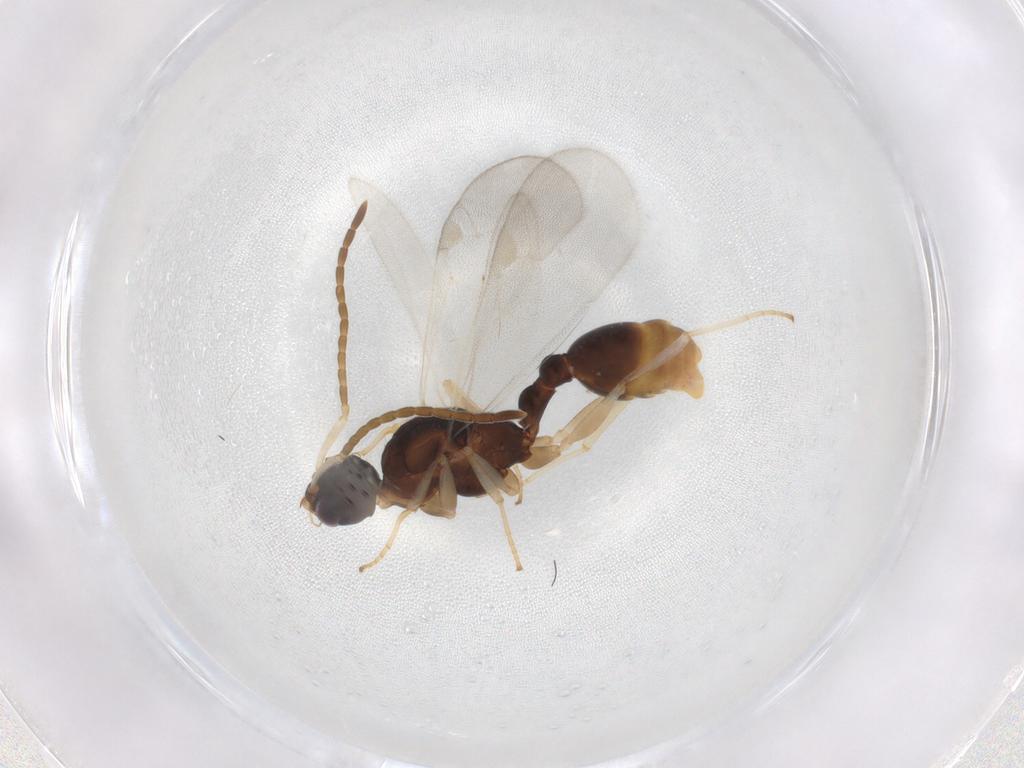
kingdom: Animalia
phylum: Arthropoda
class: Insecta
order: Hymenoptera
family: Formicidae
